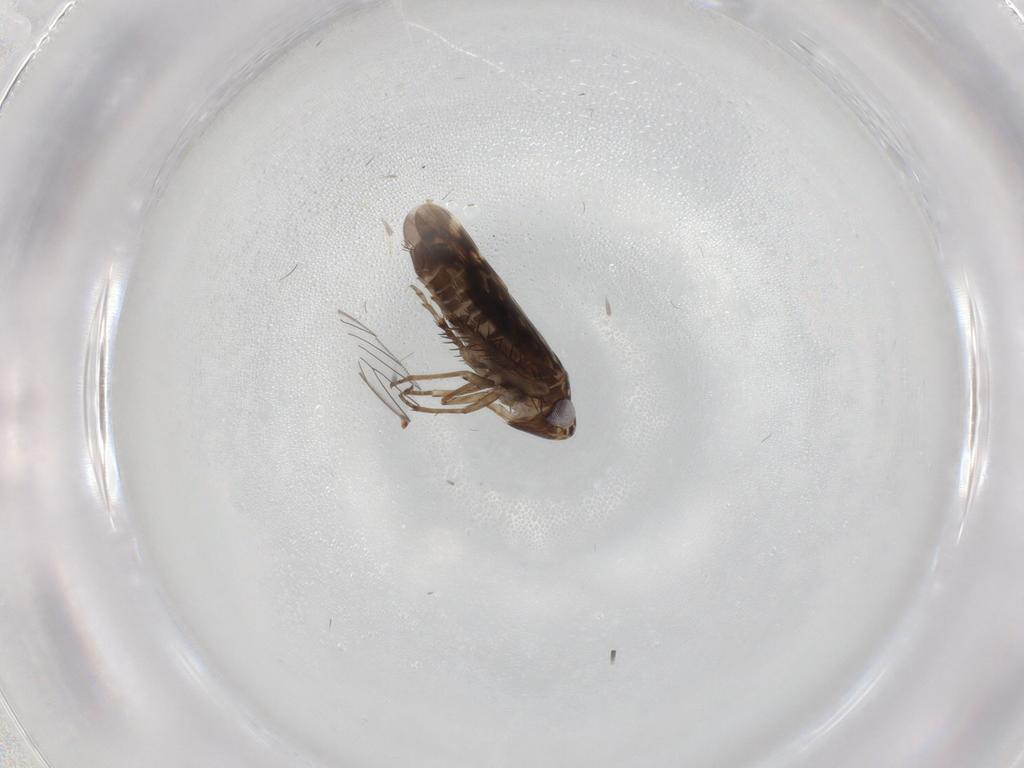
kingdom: Animalia
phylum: Arthropoda
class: Insecta
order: Hemiptera
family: Cicadellidae
